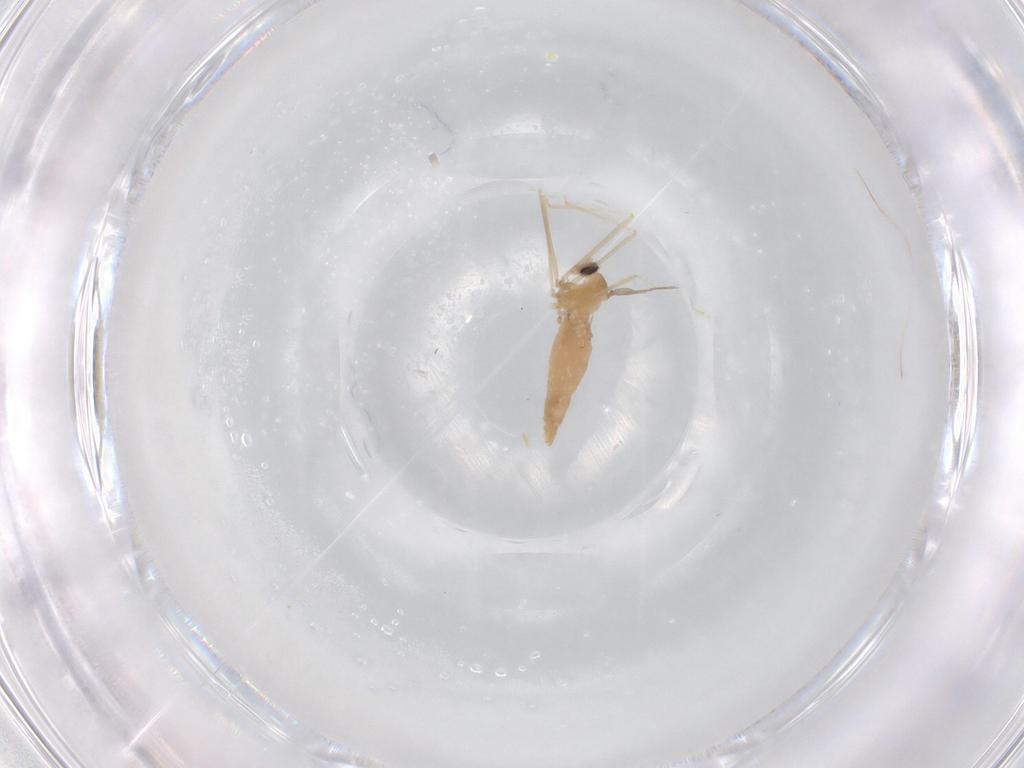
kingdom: Animalia
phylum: Arthropoda
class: Insecta
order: Diptera
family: Cecidomyiidae
